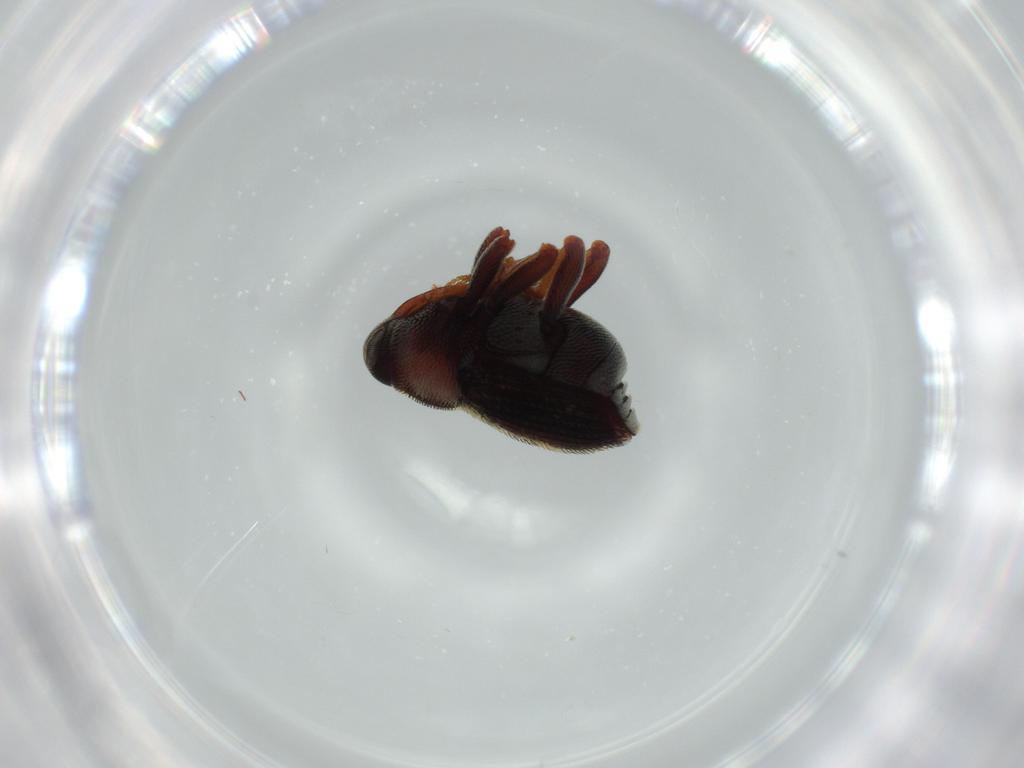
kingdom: Animalia
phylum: Arthropoda
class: Insecta
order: Coleoptera
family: Curculionidae
